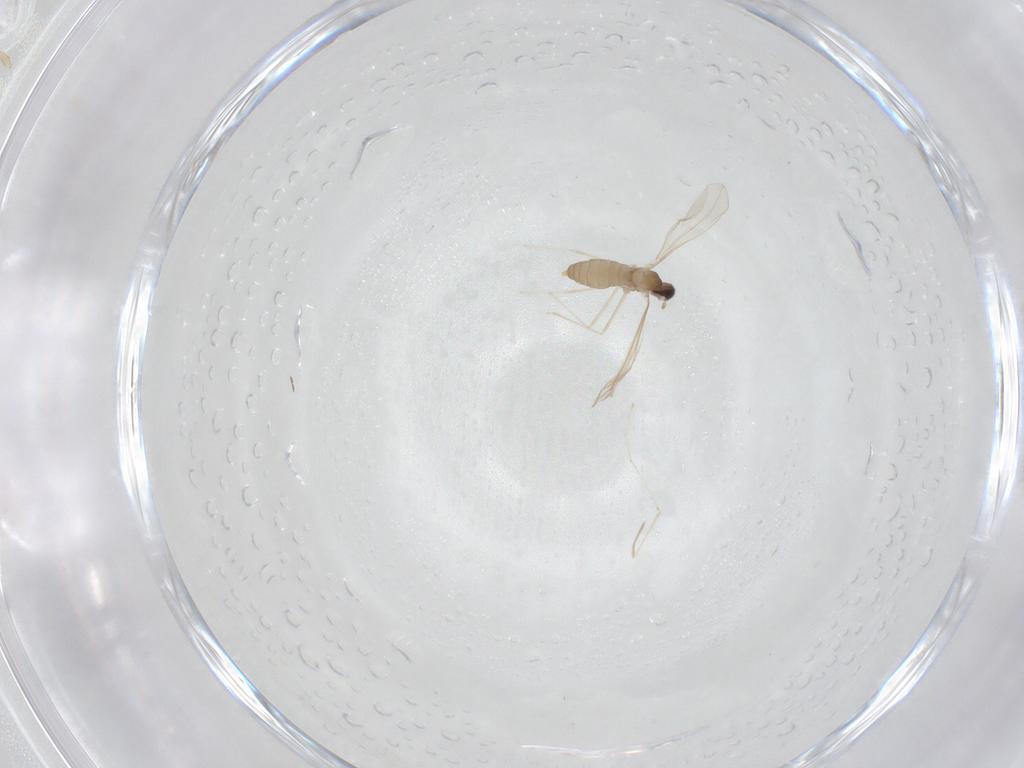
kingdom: Animalia
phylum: Arthropoda
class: Insecta
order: Diptera
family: Cecidomyiidae
